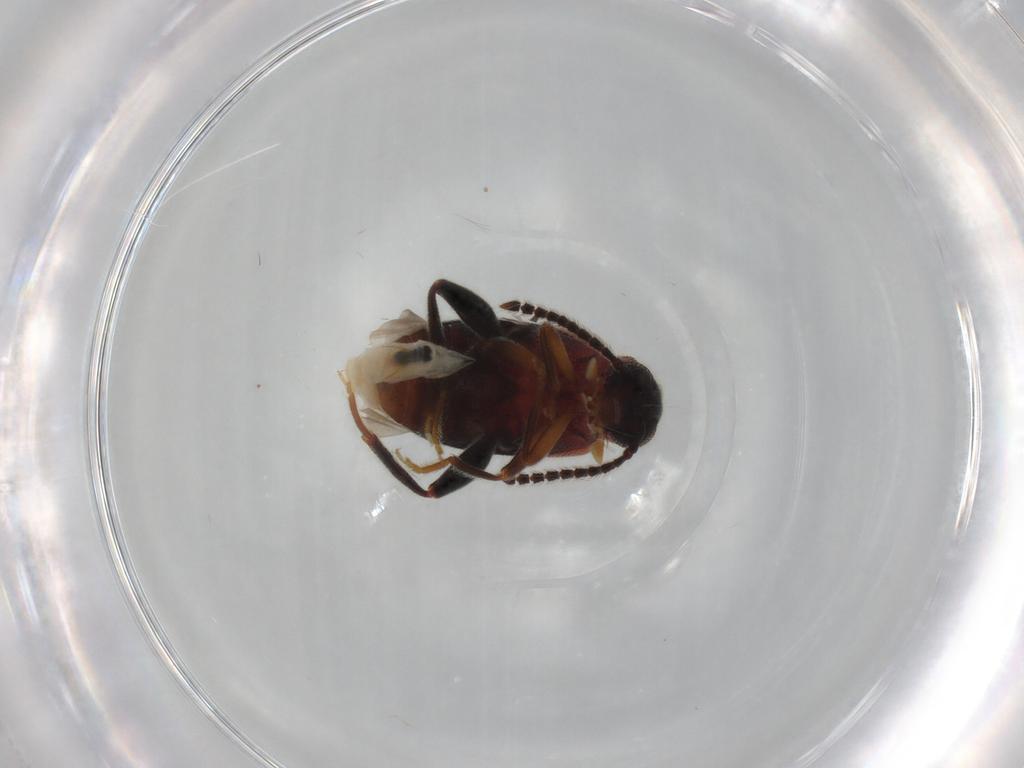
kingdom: Animalia
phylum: Arthropoda
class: Insecta
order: Coleoptera
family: Aderidae
